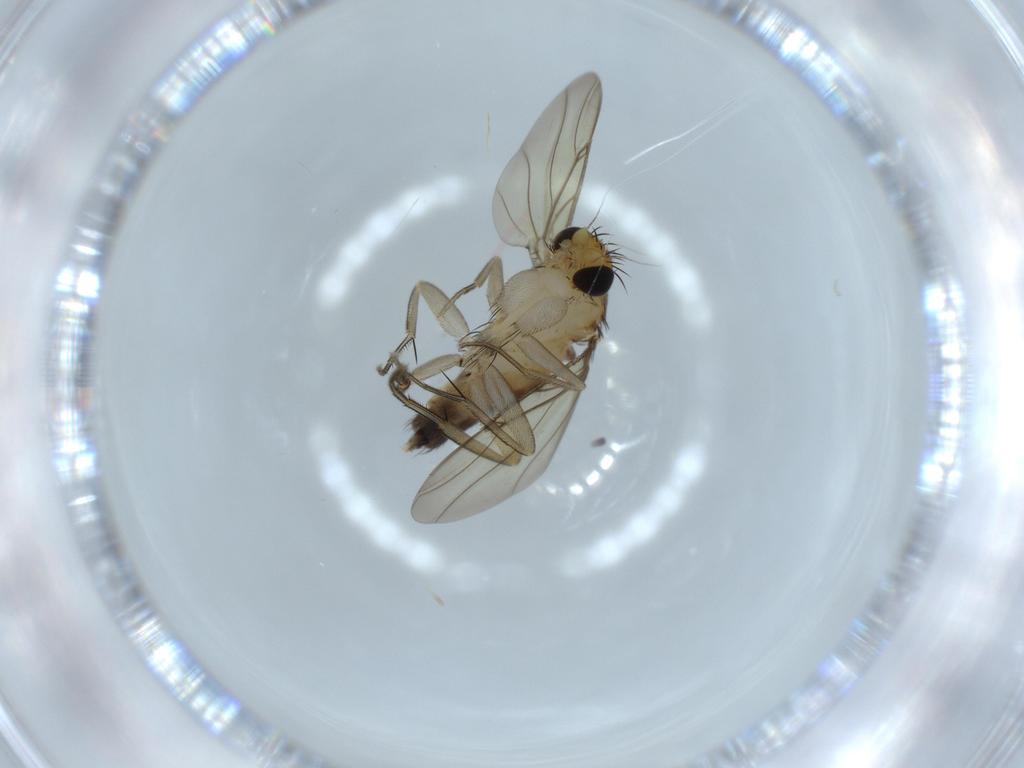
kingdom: Animalia
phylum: Arthropoda
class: Insecta
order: Diptera
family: Phoridae
